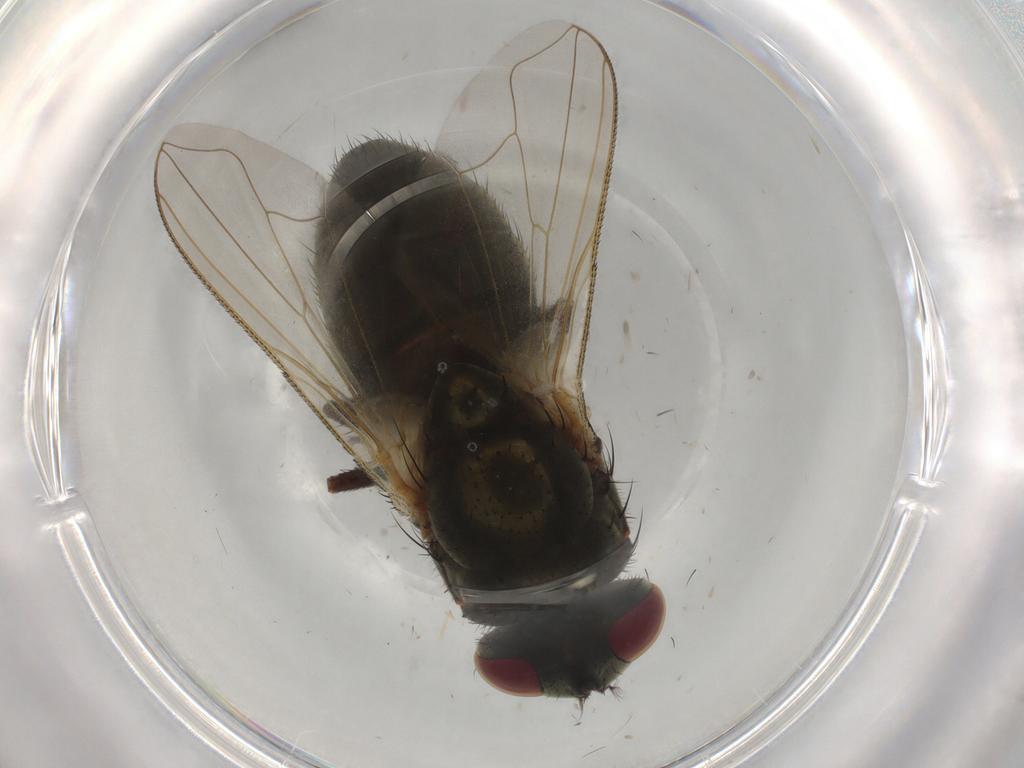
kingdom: Animalia
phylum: Arthropoda
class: Insecta
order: Diptera
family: Muscidae
